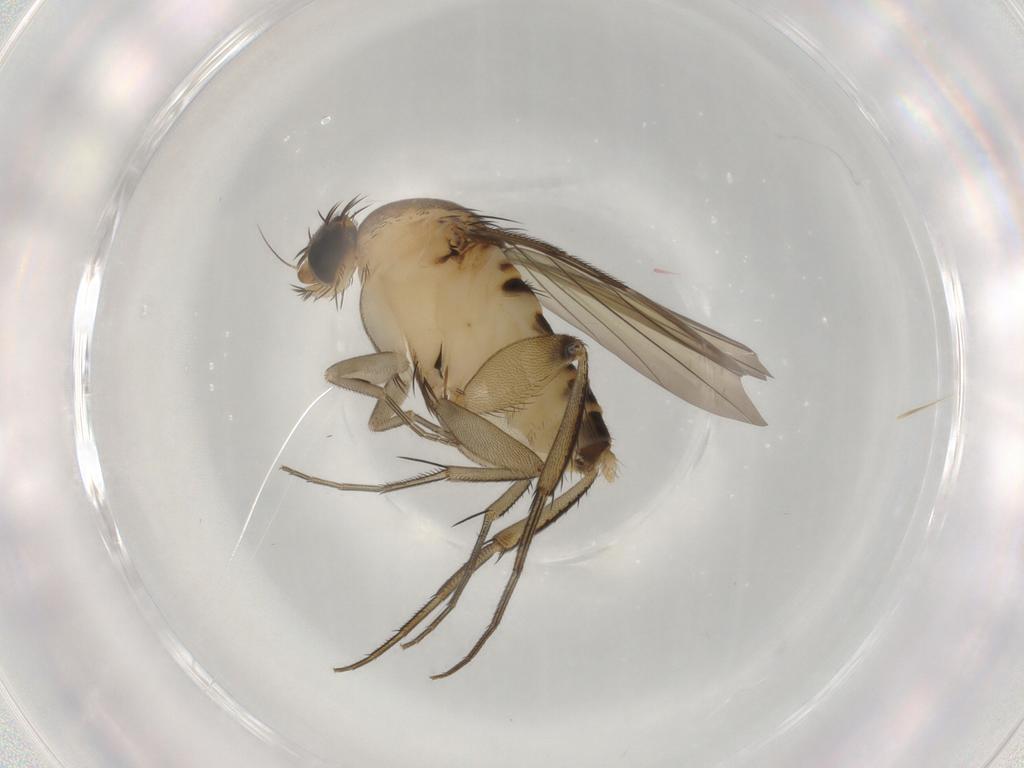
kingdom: Animalia
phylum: Arthropoda
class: Insecta
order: Diptera
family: Phoridae
